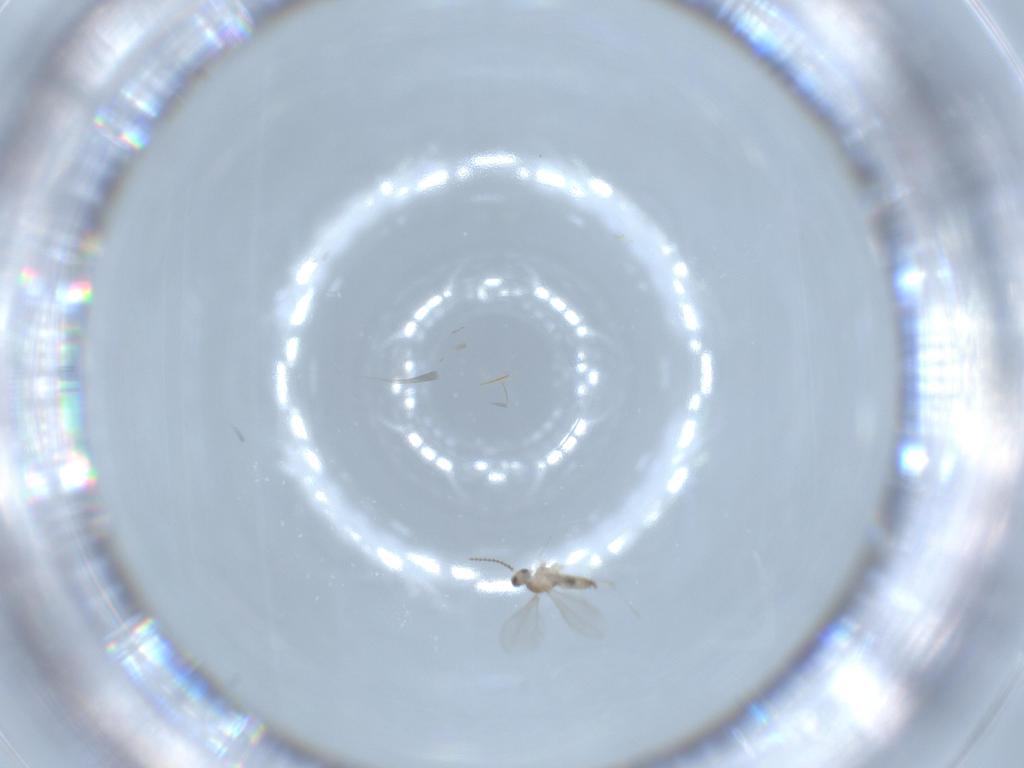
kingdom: Animalia
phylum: Arthropoda
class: Insecta
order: Diptera
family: Cecidomyiidae
